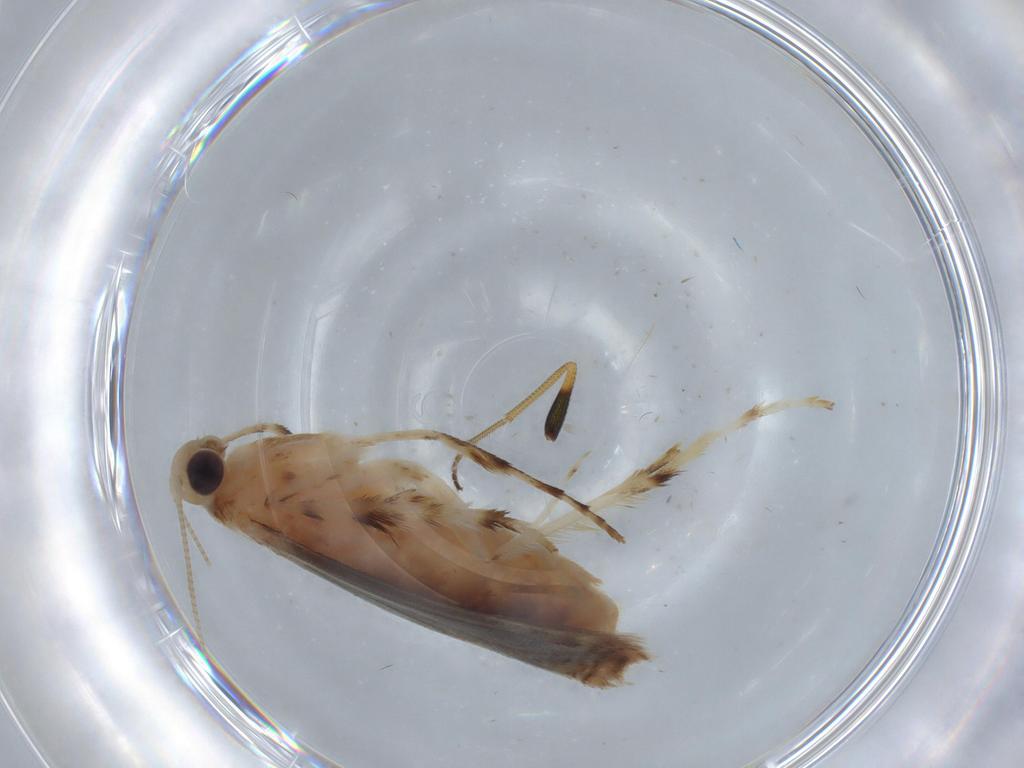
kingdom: Animalia
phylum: Arthropoda
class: Insecta
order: Lepidoptera
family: Gracillariidae
